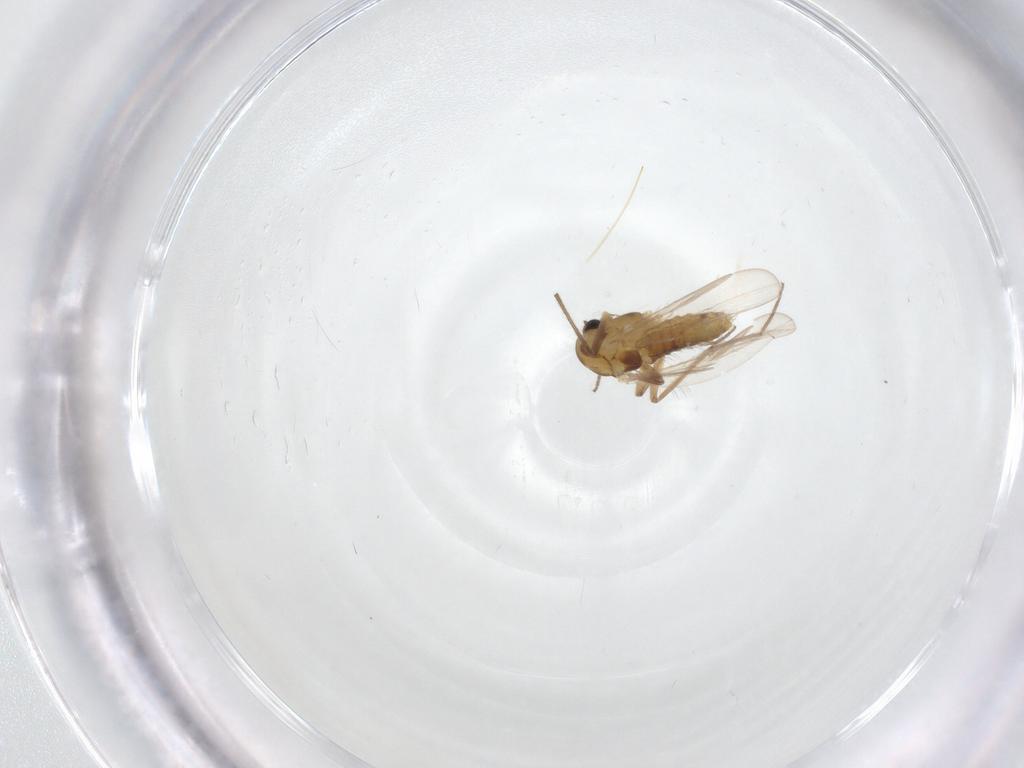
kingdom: Animalia
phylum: Arthropoda
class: Insecta
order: Diptera
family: Chironomidae
